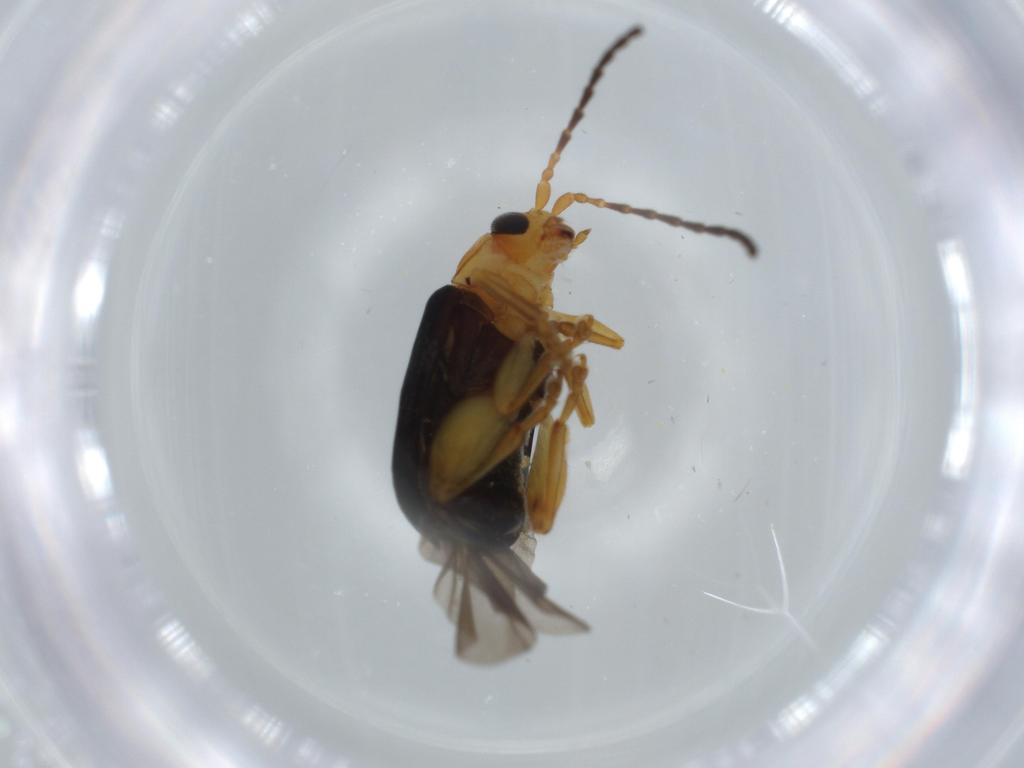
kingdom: Animalia
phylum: Arthropoda
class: Insecta
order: Coleoptera
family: Chrysomelidae
